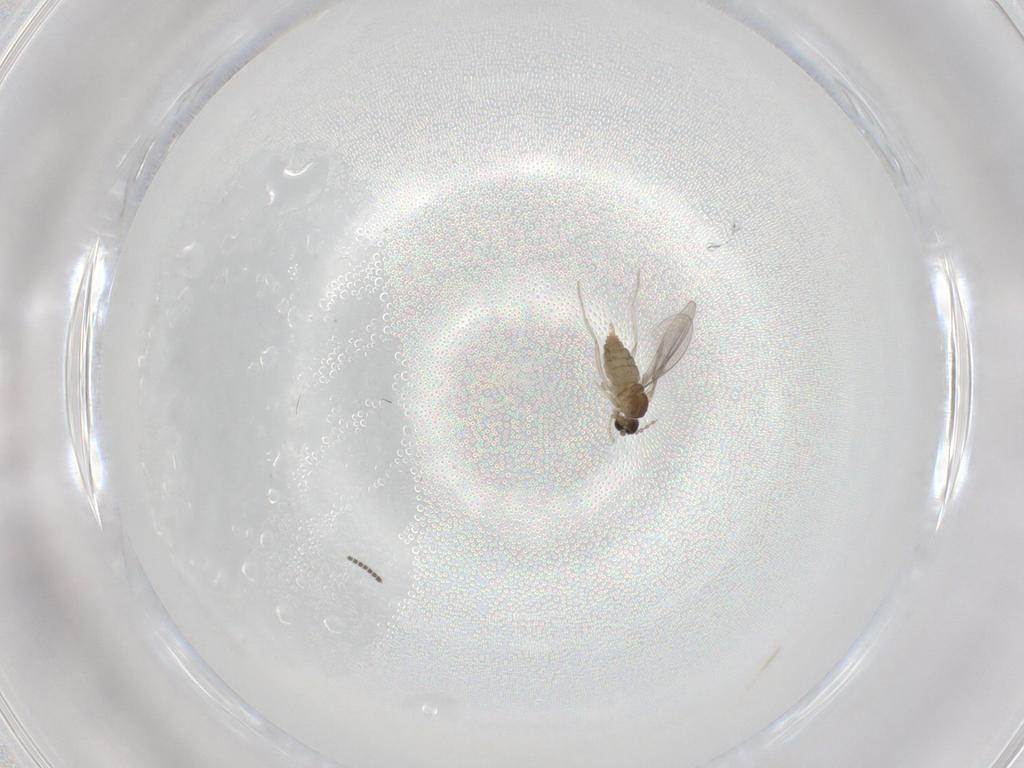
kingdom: Animalia
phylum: Arthropoda
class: Insecta
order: Diptera
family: Cecidomyiidae
